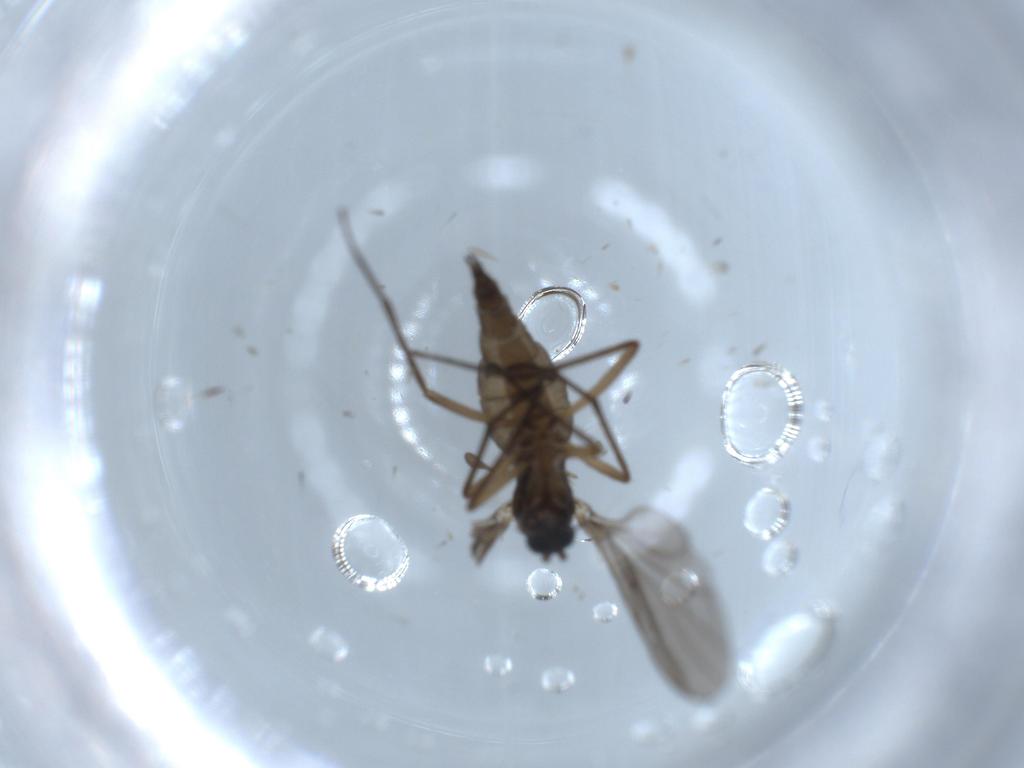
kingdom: Animalia
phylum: Arthropoda
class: Insecta
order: Diptera
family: Sciaridae
